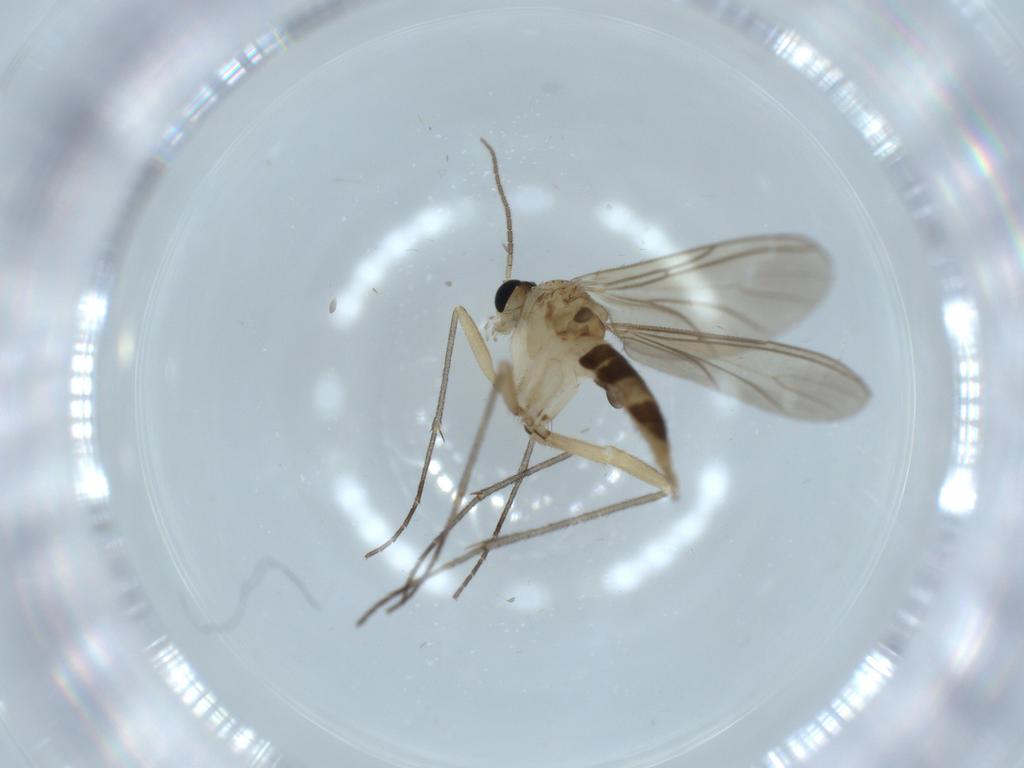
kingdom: Animalia
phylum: Arthropoda
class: Insecta
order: Diptera
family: Sciaridae
